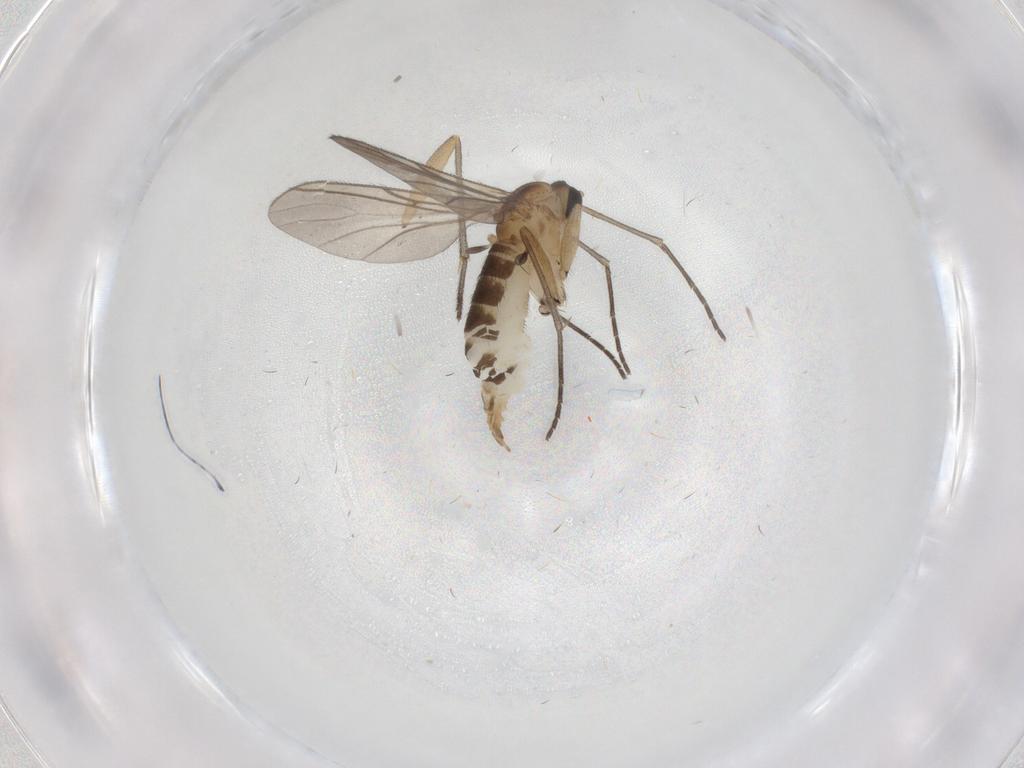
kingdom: Animalia
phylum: Arthropoda
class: Insecta
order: Diptera
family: Sciaridae
